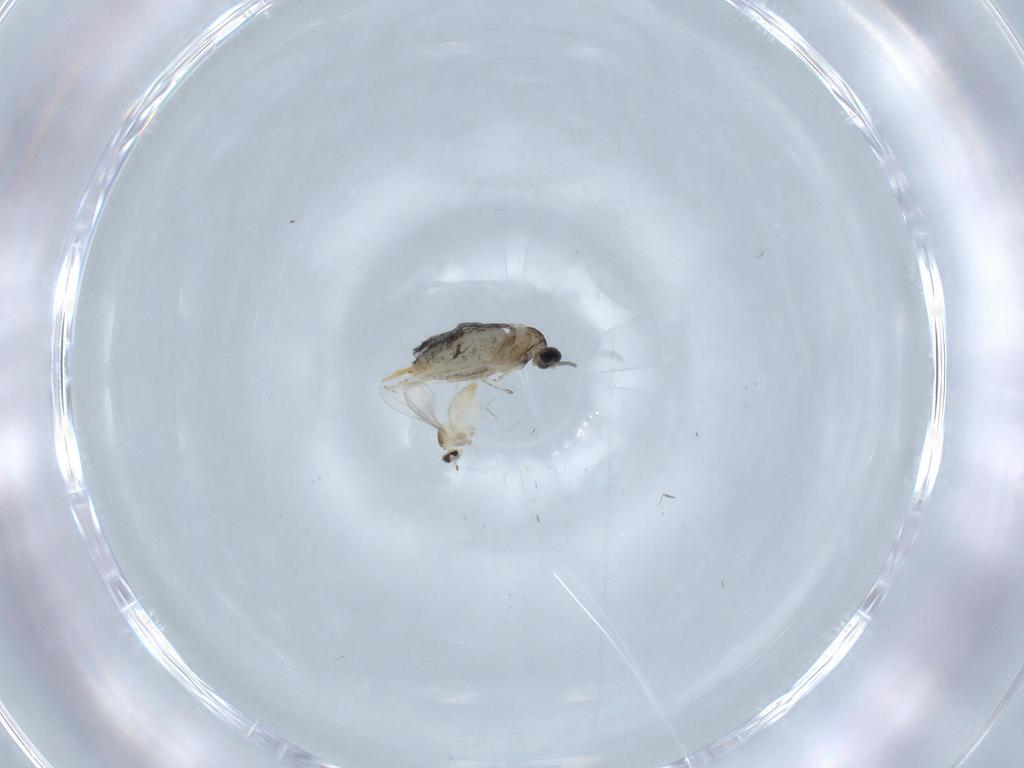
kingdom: Animalia
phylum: Arthropoda
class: Insecta
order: Diptera
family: Cecidomyiidae
